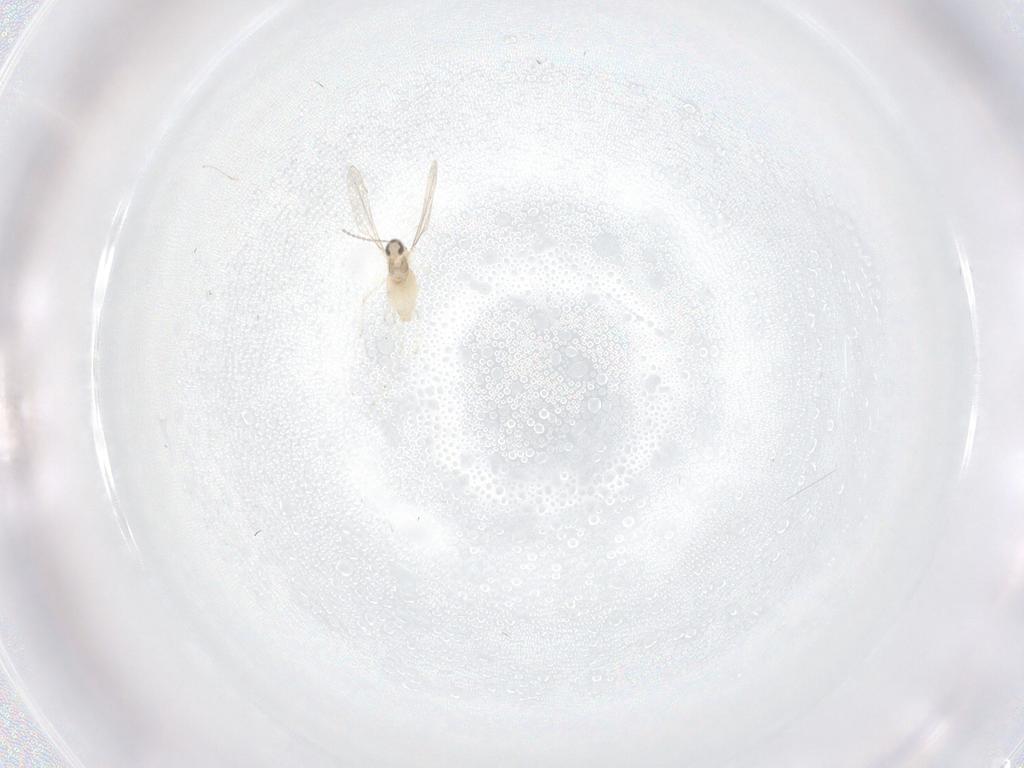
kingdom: Animalia
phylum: Arthropoda
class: Insecta
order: Diptera
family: Cecidomyiidae
